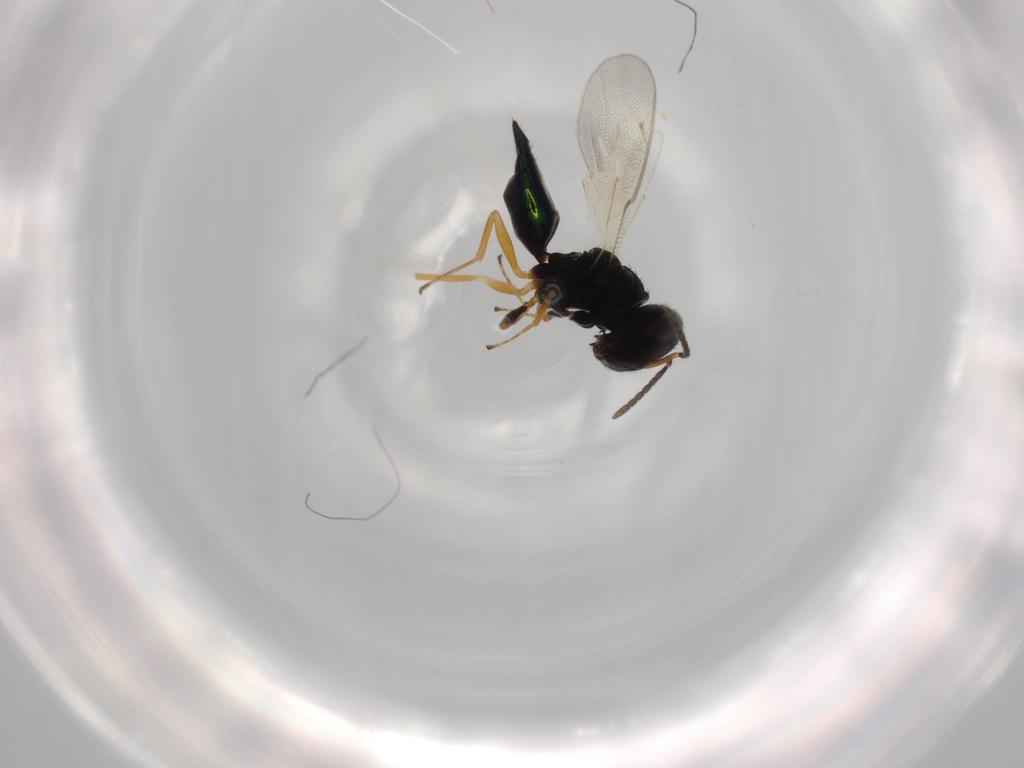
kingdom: Animalia
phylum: Arthropoda
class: Insecta
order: Hymenoptera
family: Pteromalidae
